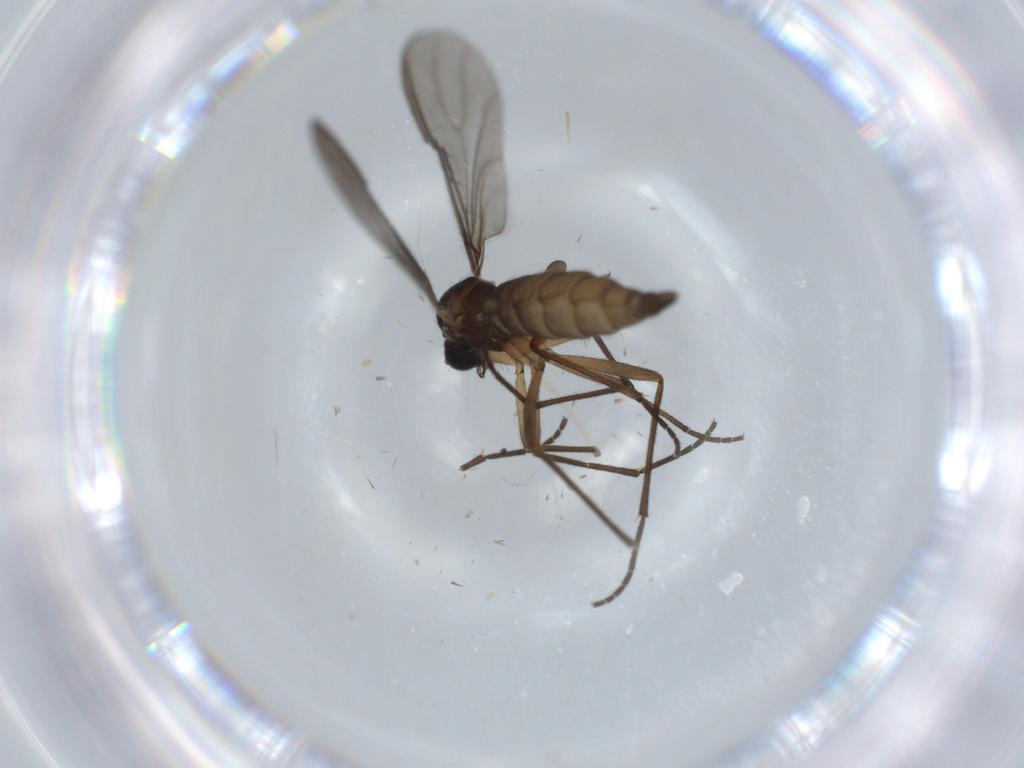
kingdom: Animalia
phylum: Arthropoda
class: Insecta
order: Diptera
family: Sciaridae
